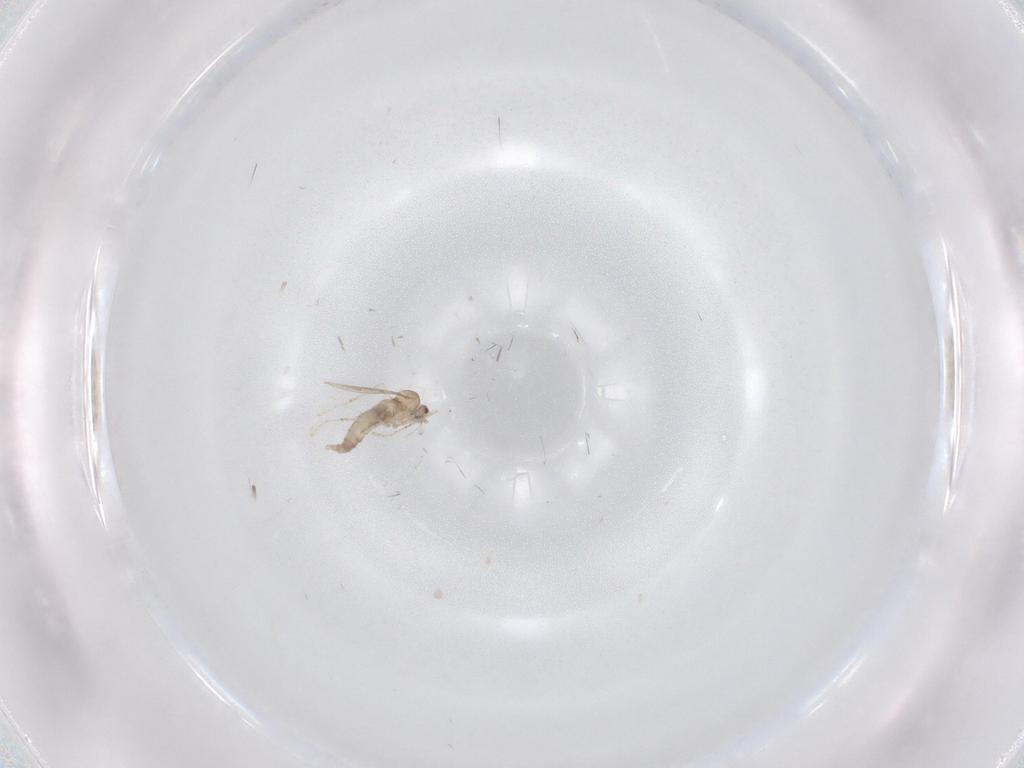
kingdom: Animalia
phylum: Arthropoda
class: Insecta
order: Diptera
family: Cecidomyiidae
